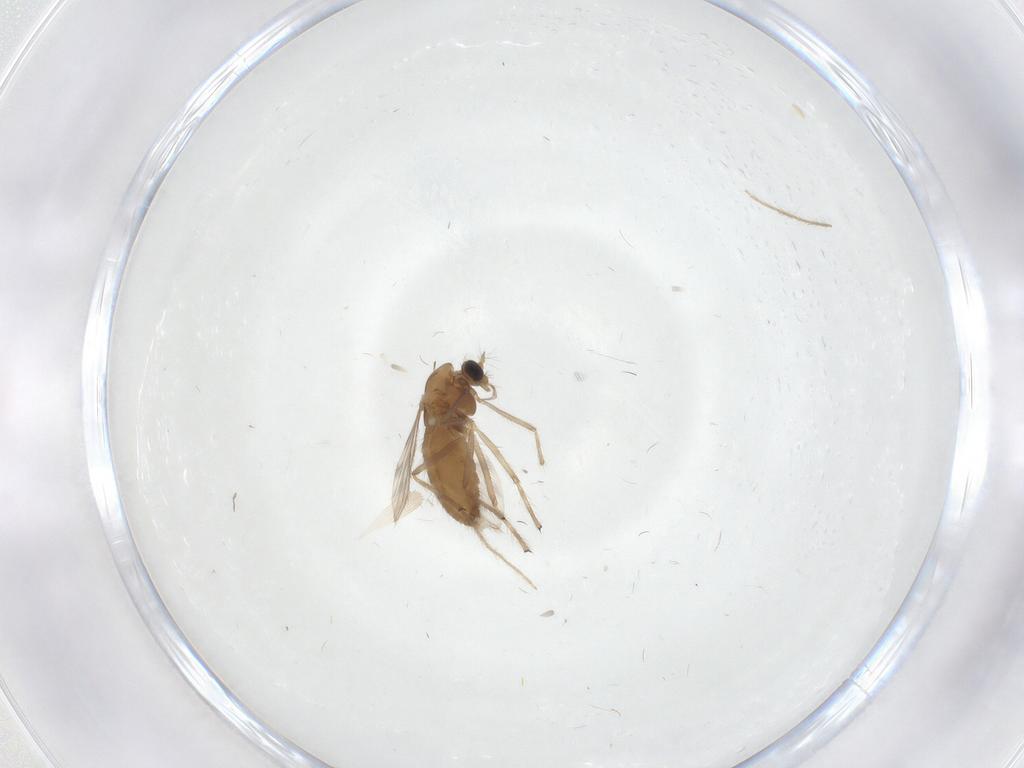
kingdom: Animalia
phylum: Arthropoda
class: Insecta
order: Diptera
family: Chironomidae
